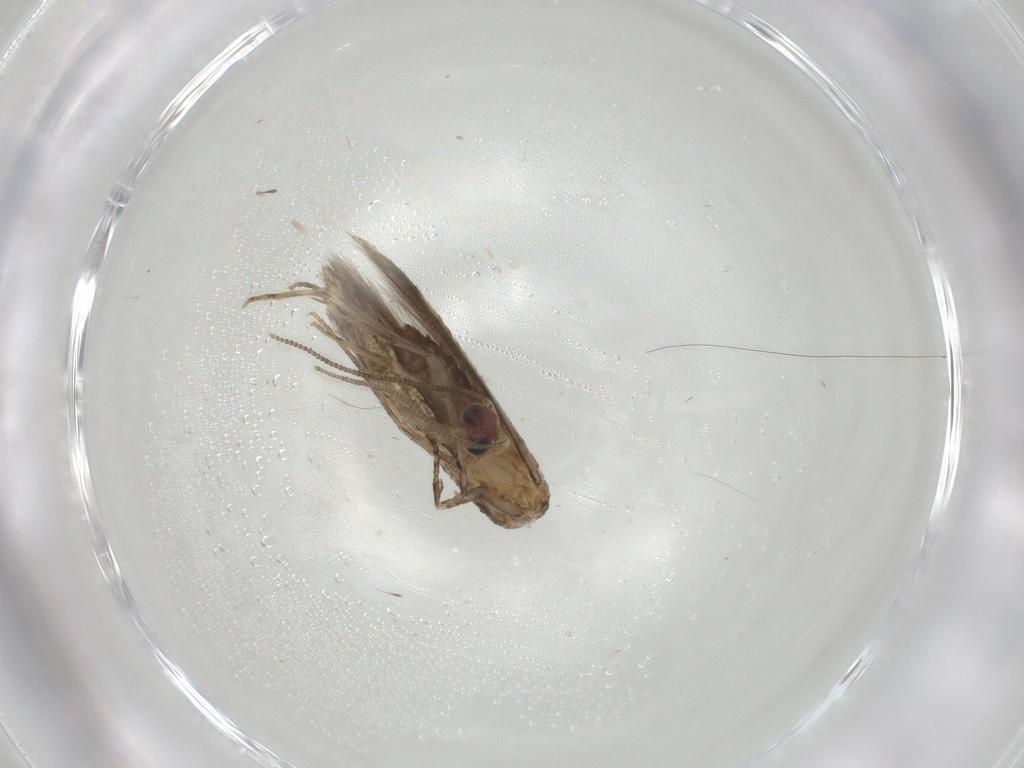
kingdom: Animalia
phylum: Arthropoda
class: Insecta
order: Lepidoptera
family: Tineidae
